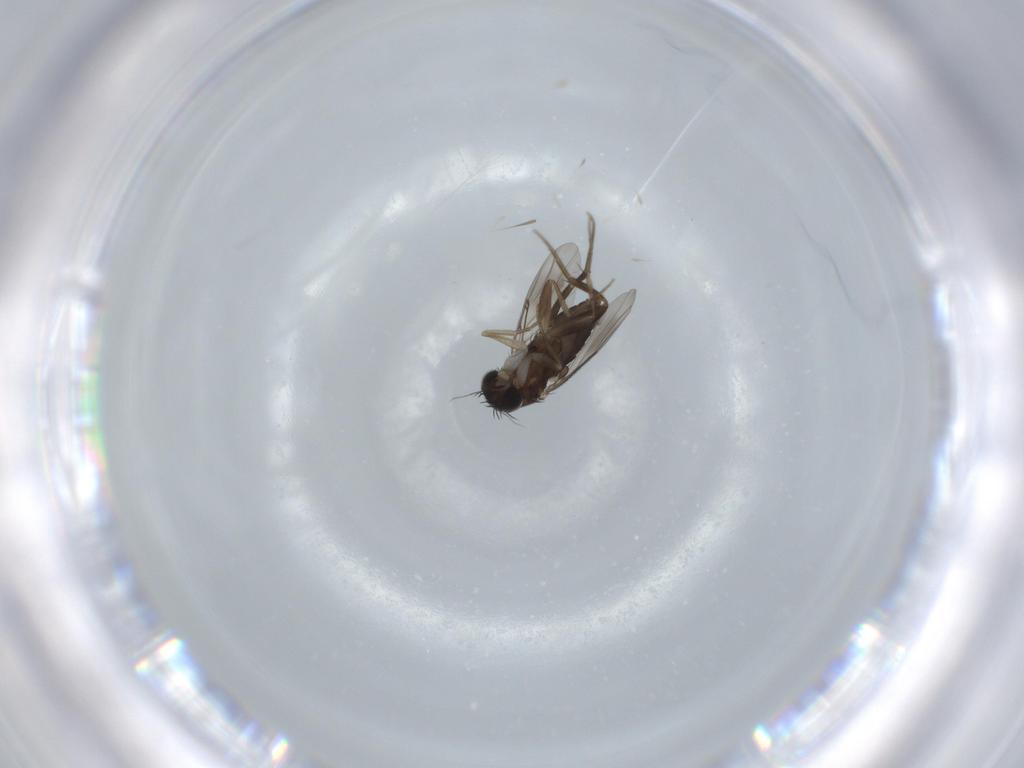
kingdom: Animalia
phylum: Arthropoda
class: Insecta
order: Diptera
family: Phoridae
